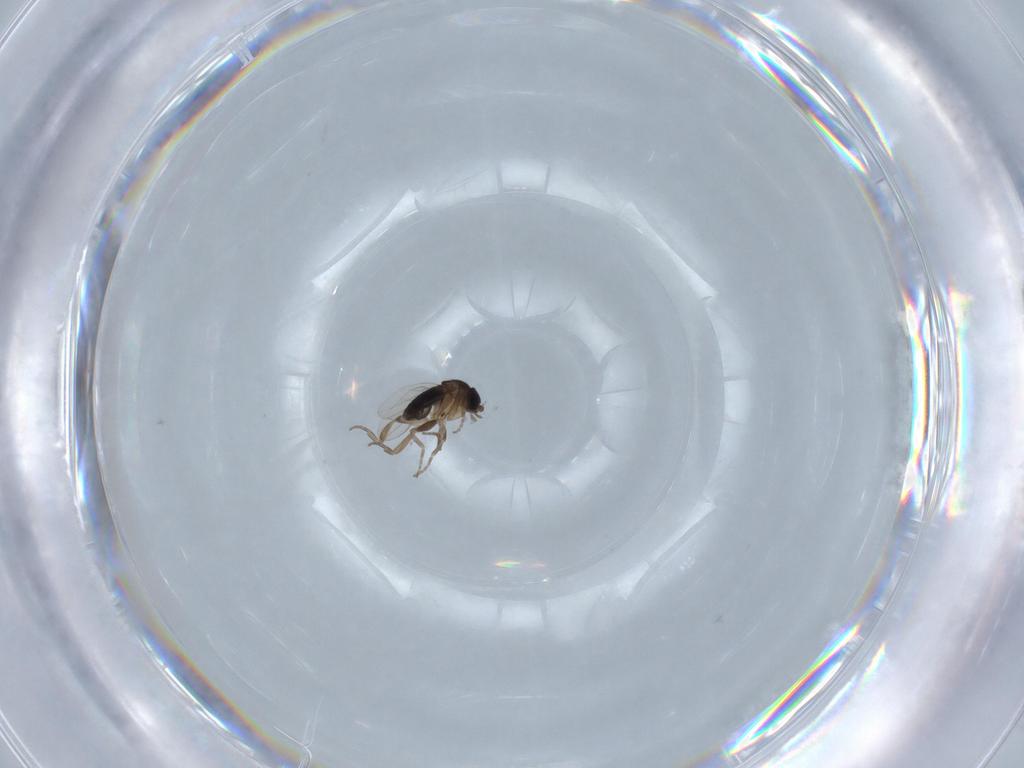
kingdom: Animalia
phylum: Arthropoda
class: Insecta
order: Diptera
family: Phoridae
